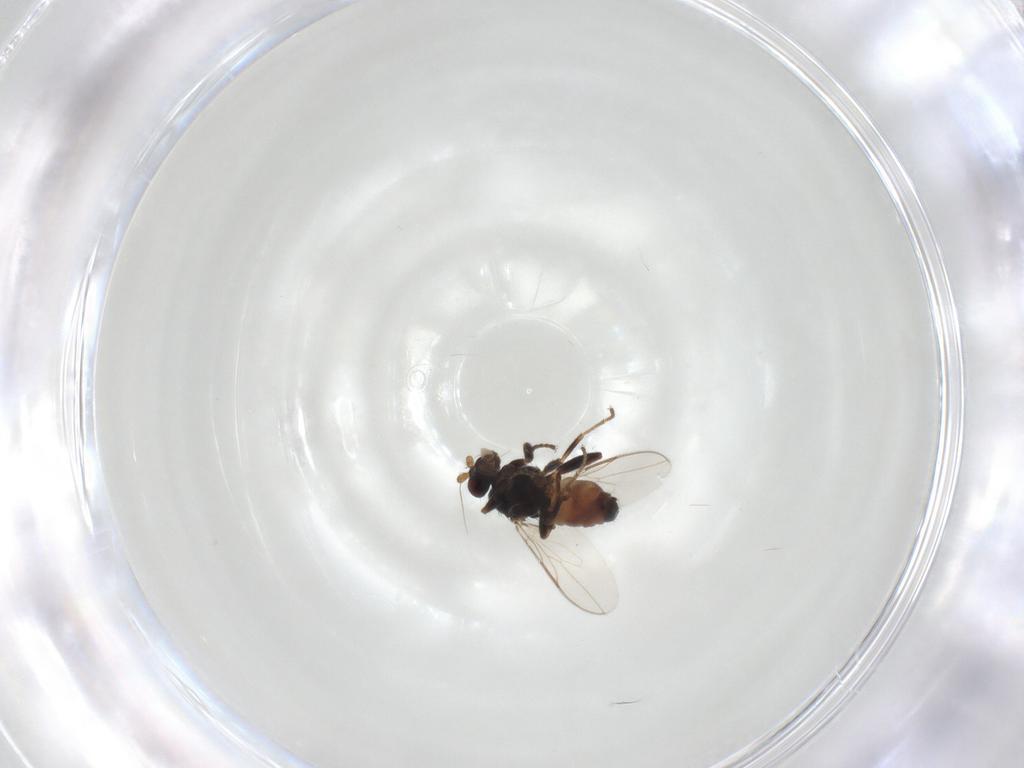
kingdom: Animalia
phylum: Arthropoda
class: Insecta
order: Diptera
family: Sphaeroceridae
